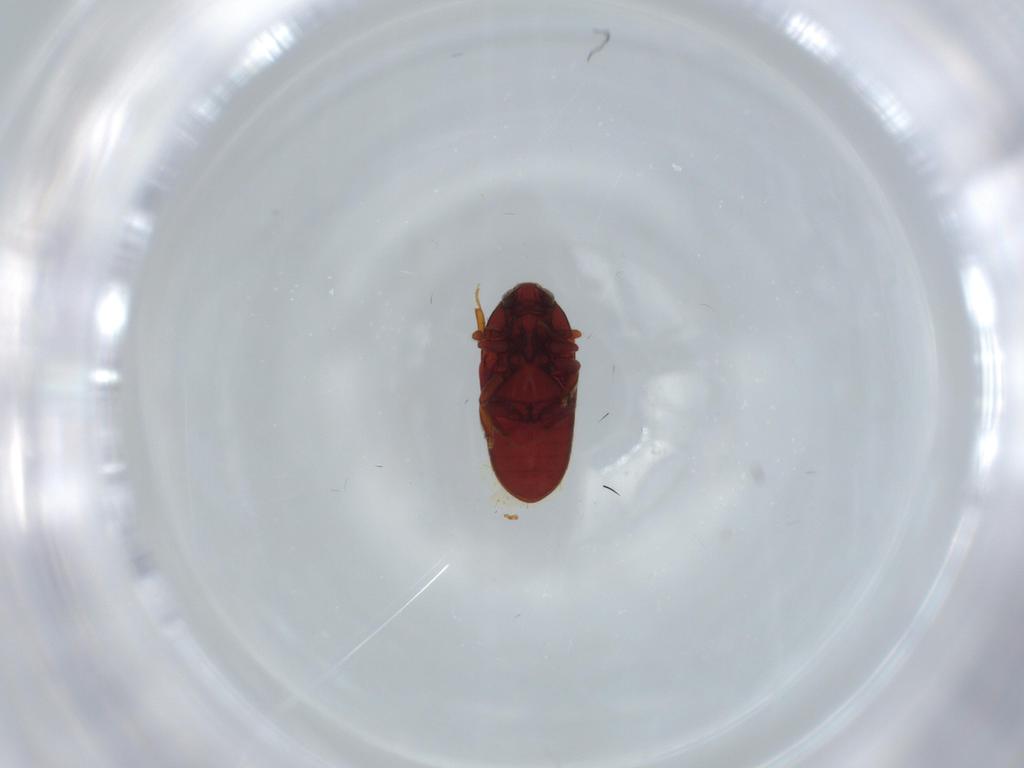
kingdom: Animalia
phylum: Arthropoda
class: Insecta
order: Coleoptera
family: Throscidae
